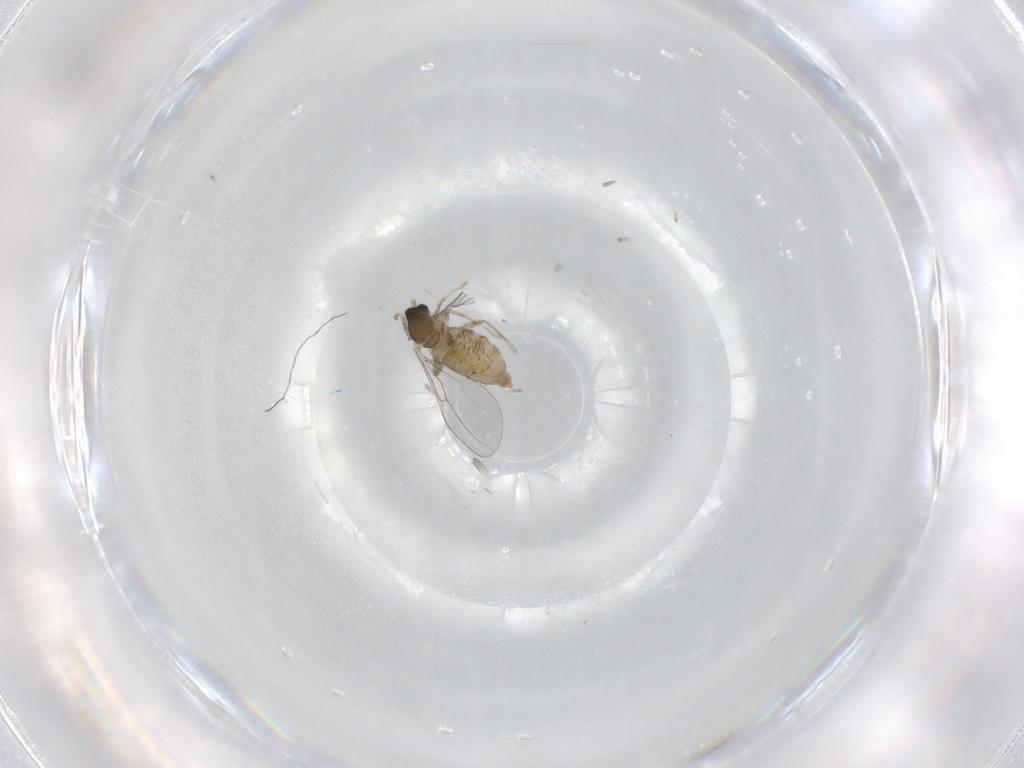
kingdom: Animalia
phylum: Arthropoda
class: Insecta
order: Diptera
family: Cecidomyiidae
